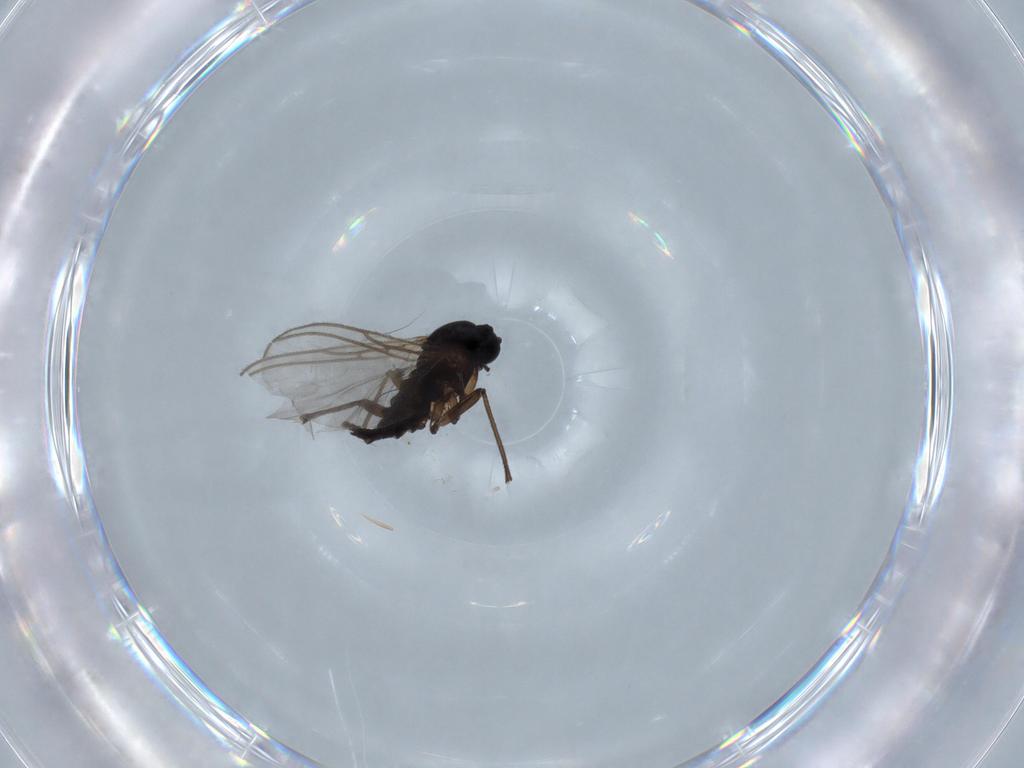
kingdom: Animalia
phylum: Arthropoda
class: Insecta
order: Diptera
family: Sciaridae
